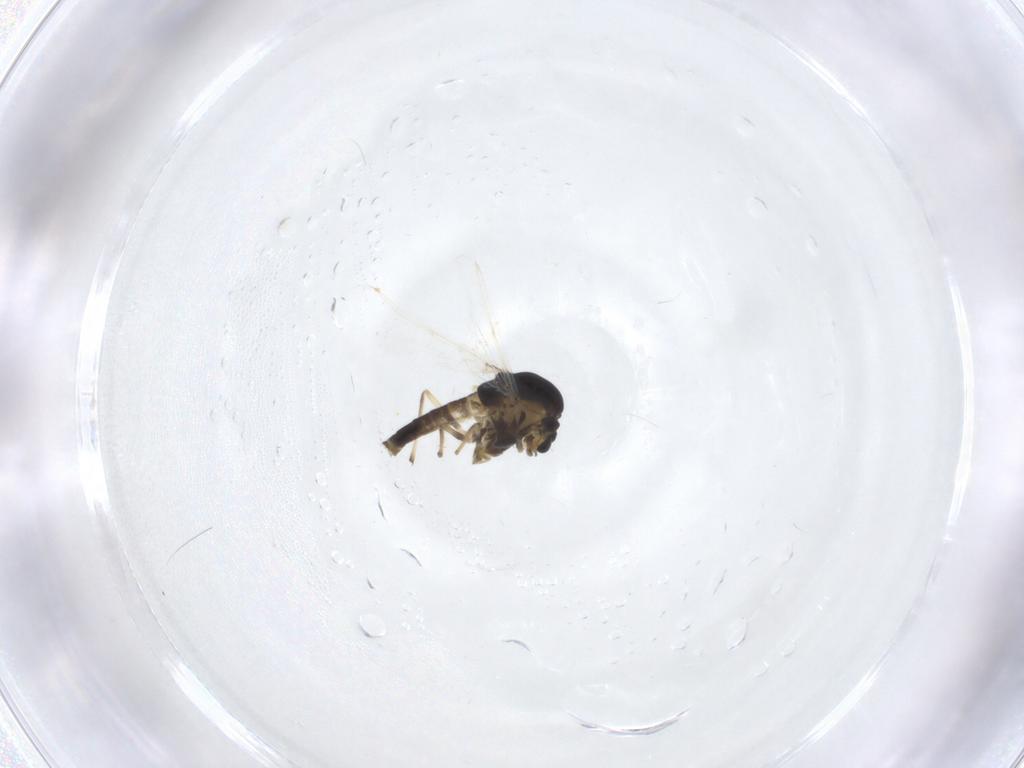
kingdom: Animalia
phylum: Arthropoda
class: Insecta
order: Diptera
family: Chironomidae
